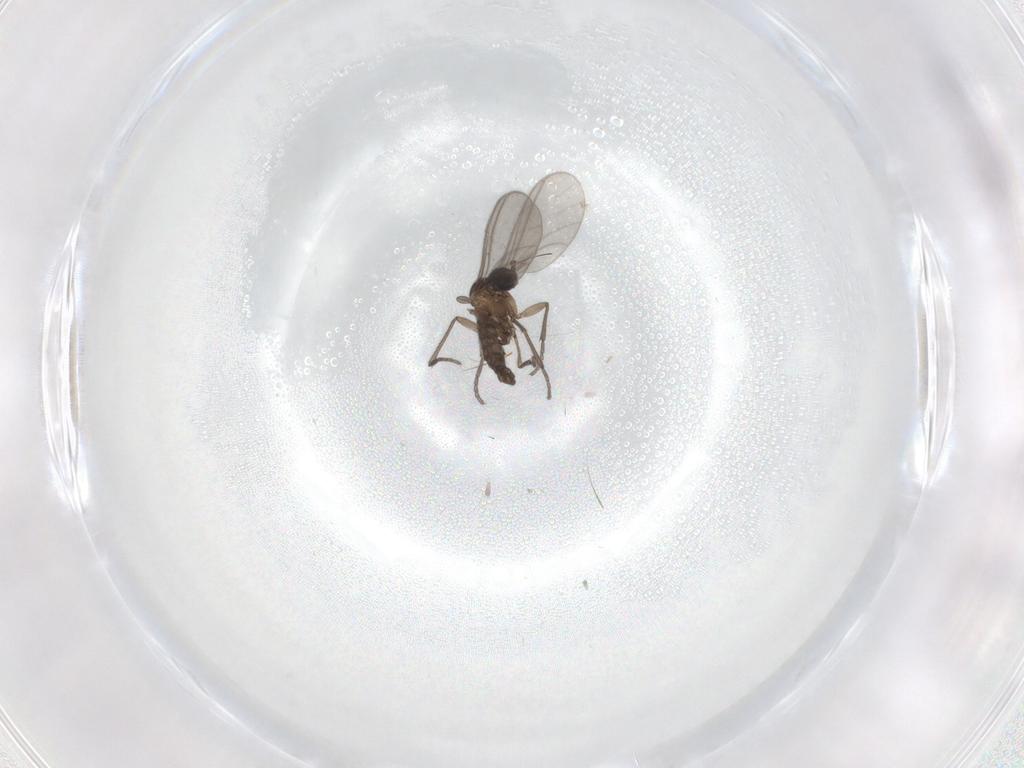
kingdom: Animalia
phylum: Arthropoda
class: Insecta
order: Diptera
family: Sciaridae
